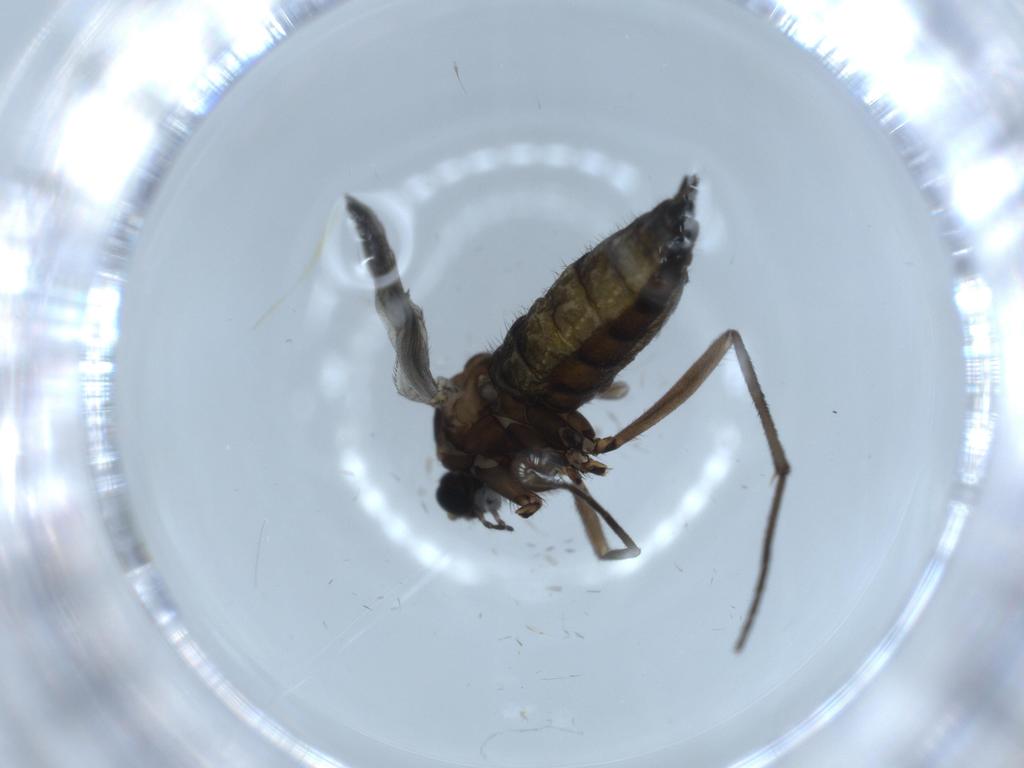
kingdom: Animalia
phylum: Arthropoda
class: Insecta
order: Diptera
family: Sciaridae
